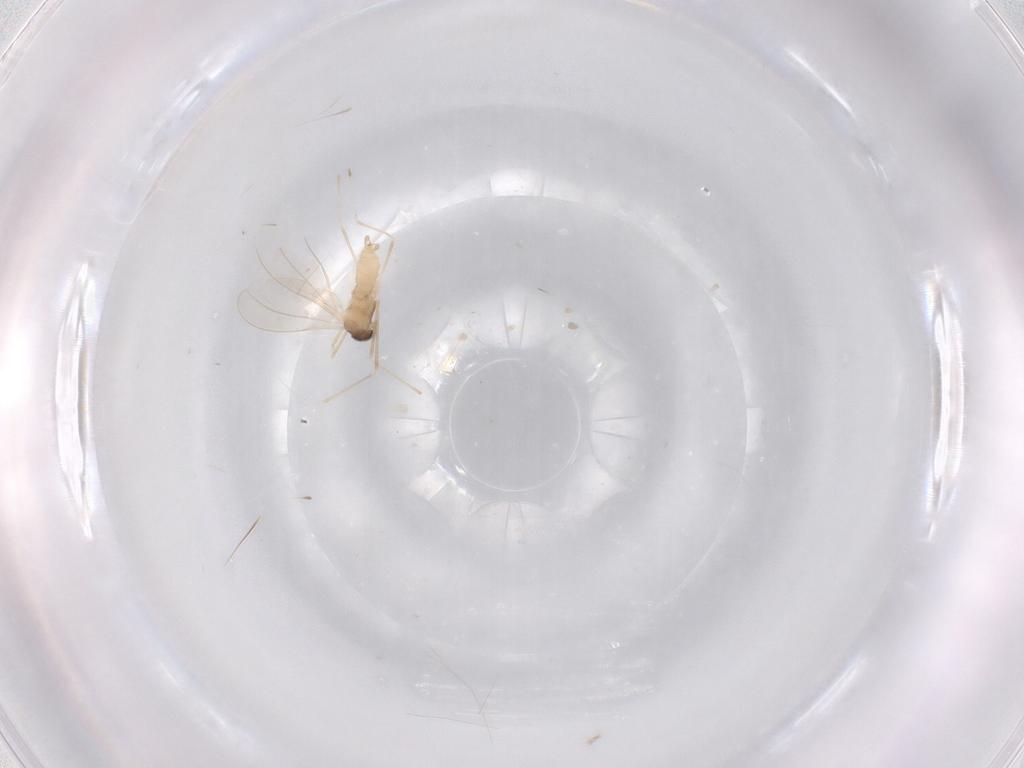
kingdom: Animalia
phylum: Arthropoda
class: Insecta
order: Diptera
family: Cecidomyiidae
